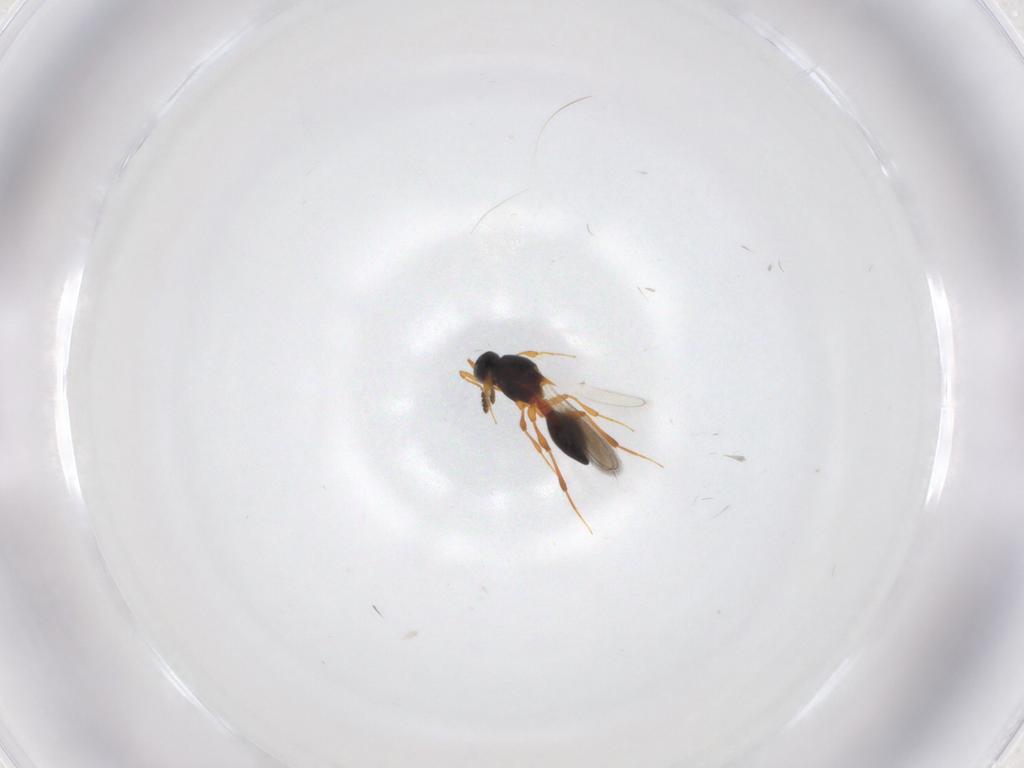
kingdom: Animalia
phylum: Arthropoda
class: Insecta
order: Hymenoptera
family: Platygastridae
